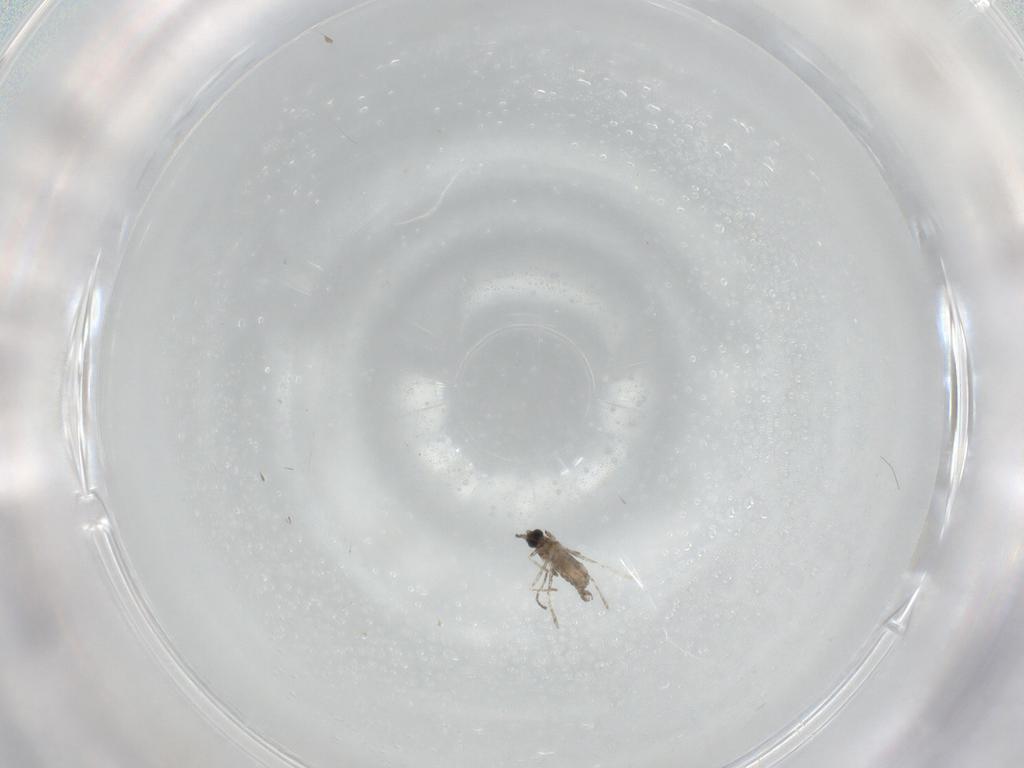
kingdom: Animalia
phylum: Arthropoda
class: Insecta
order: Diptera
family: Cecidomyiidae
